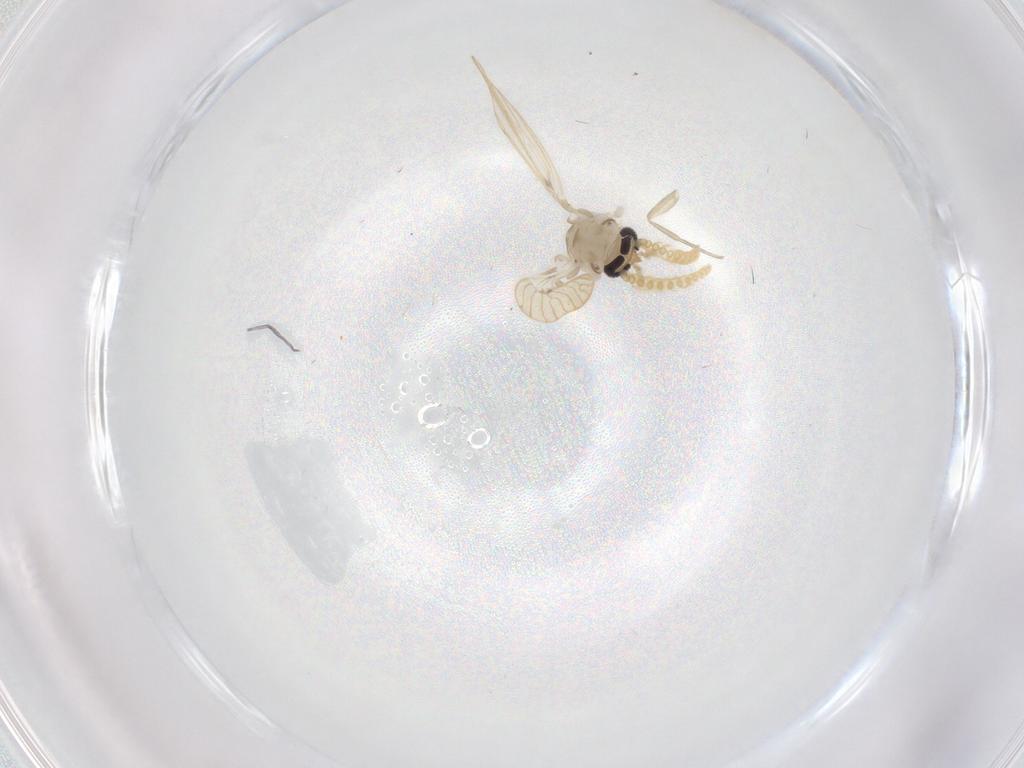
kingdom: Animalia
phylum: Arthropoda
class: Insecta
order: Diptera
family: Psychodidae
